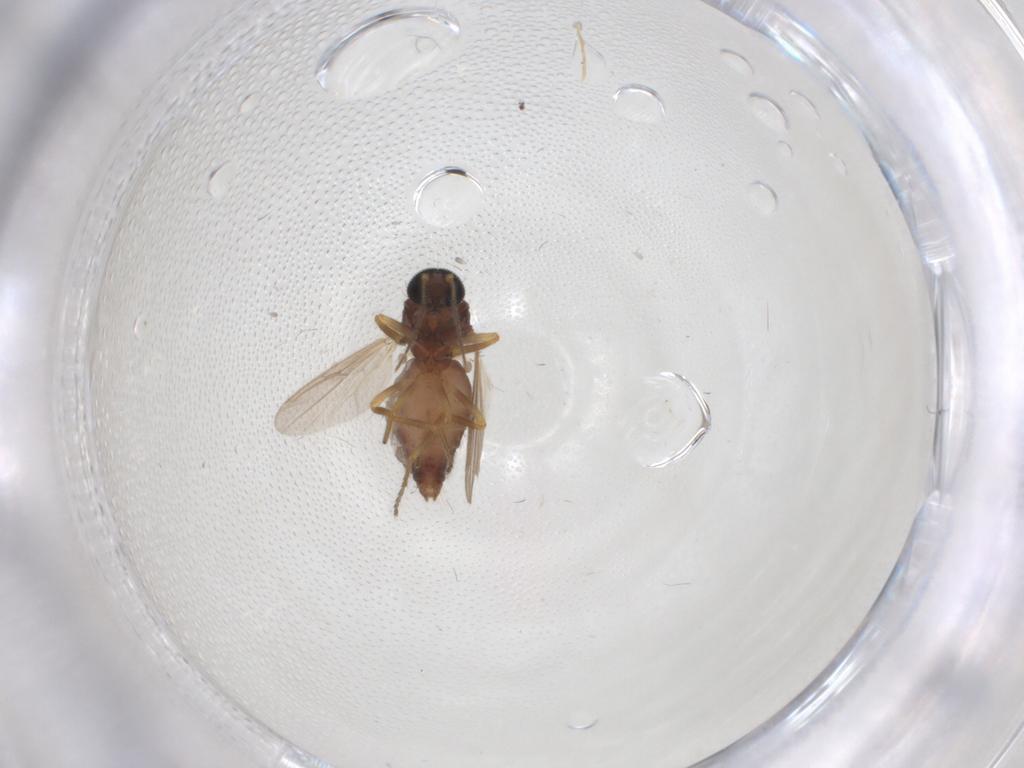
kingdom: Animalia
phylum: Arthropoda
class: Insecta
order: Diptera
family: Ceratopogonidae
